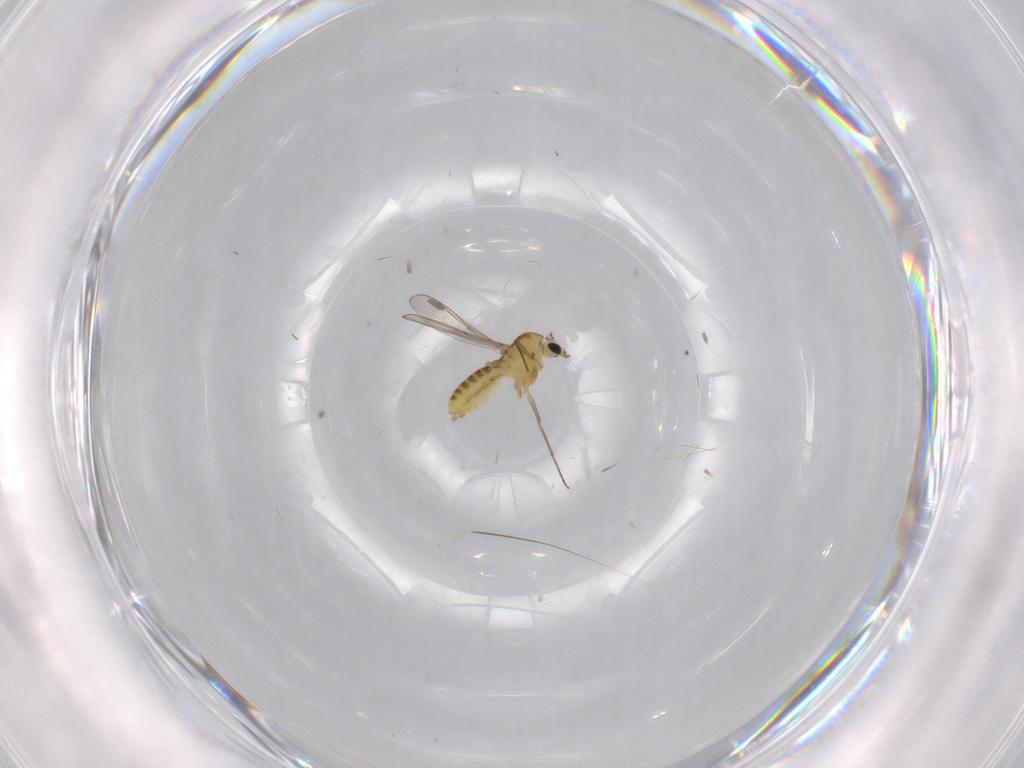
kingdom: Animalia
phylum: Arthropoda
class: Insecta
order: Diptera
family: Chironomidae
